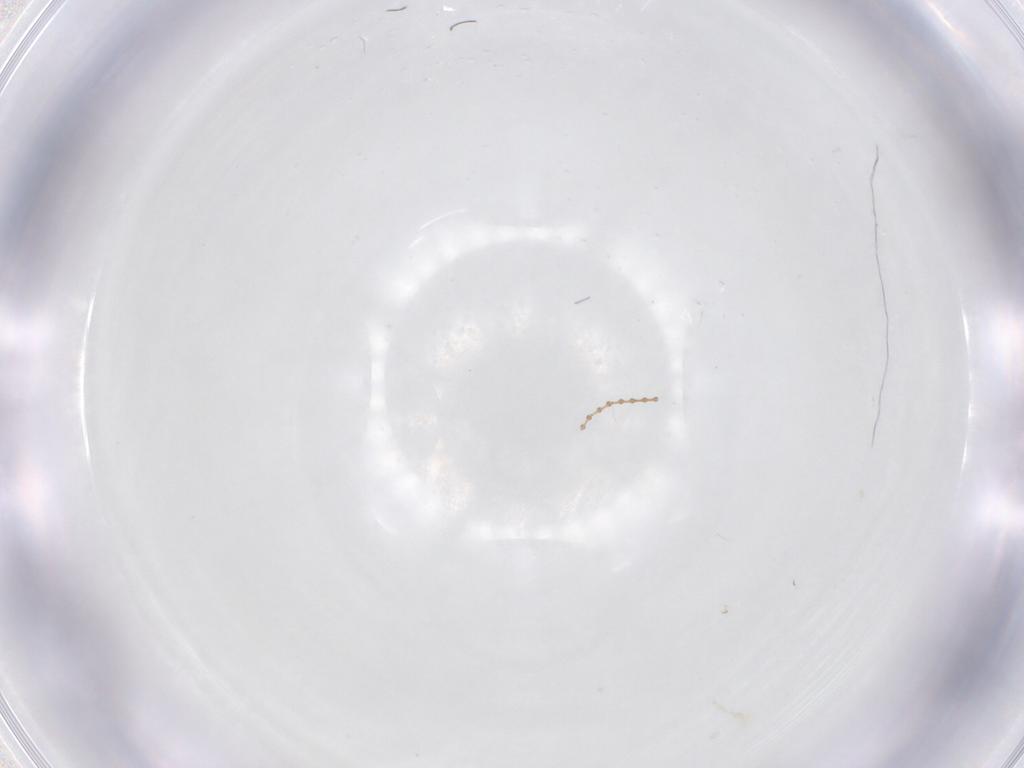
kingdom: Animalia
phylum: Arthropoda
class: Insecta
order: Diptera
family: Cecidomyiidae
